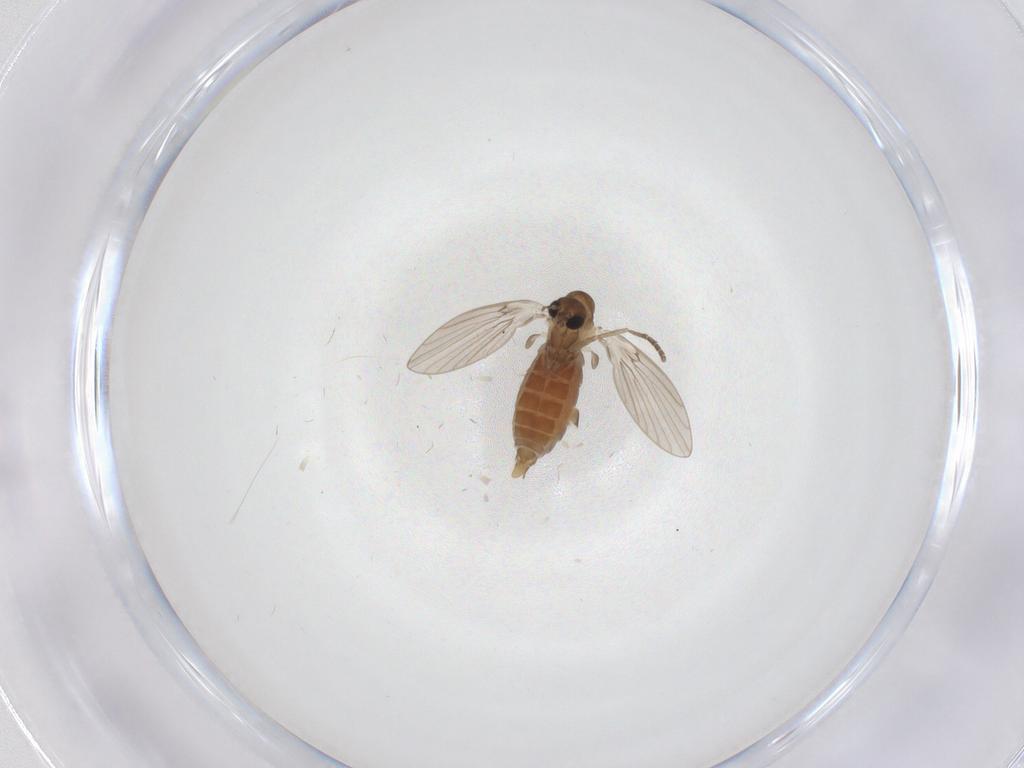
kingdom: Animalia
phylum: Arthropoda
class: Insecta
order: Diptera
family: Psychodidae
